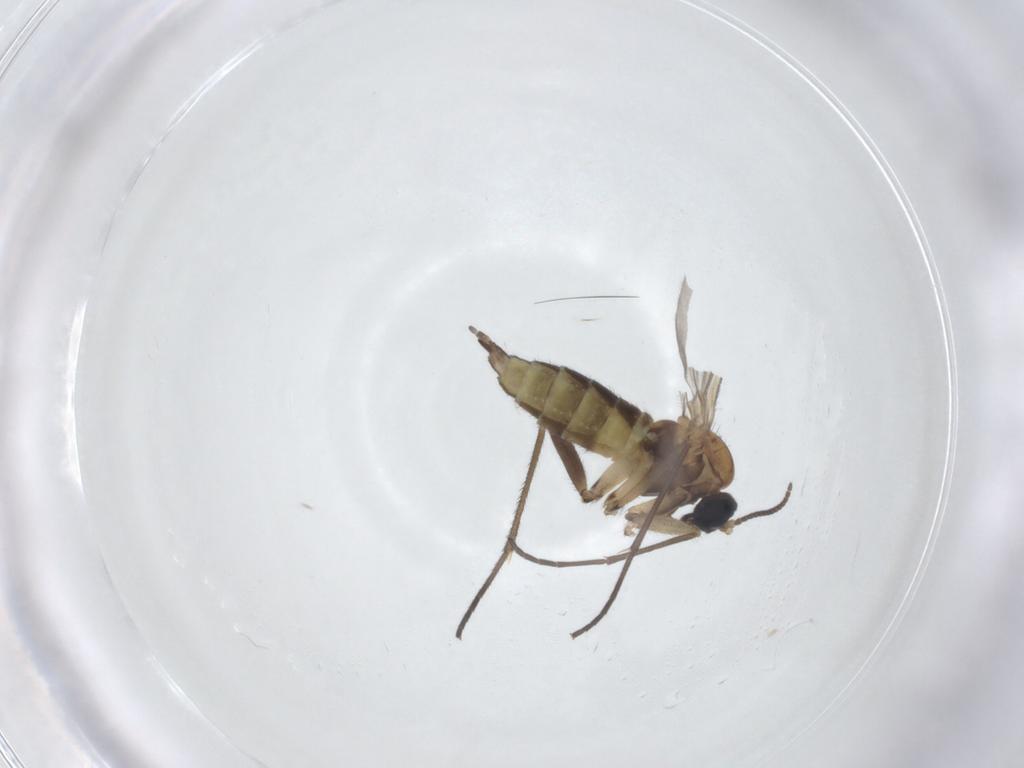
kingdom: Animalia
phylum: Arthropoda
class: Insecta
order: Diptera
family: Sciaridae
